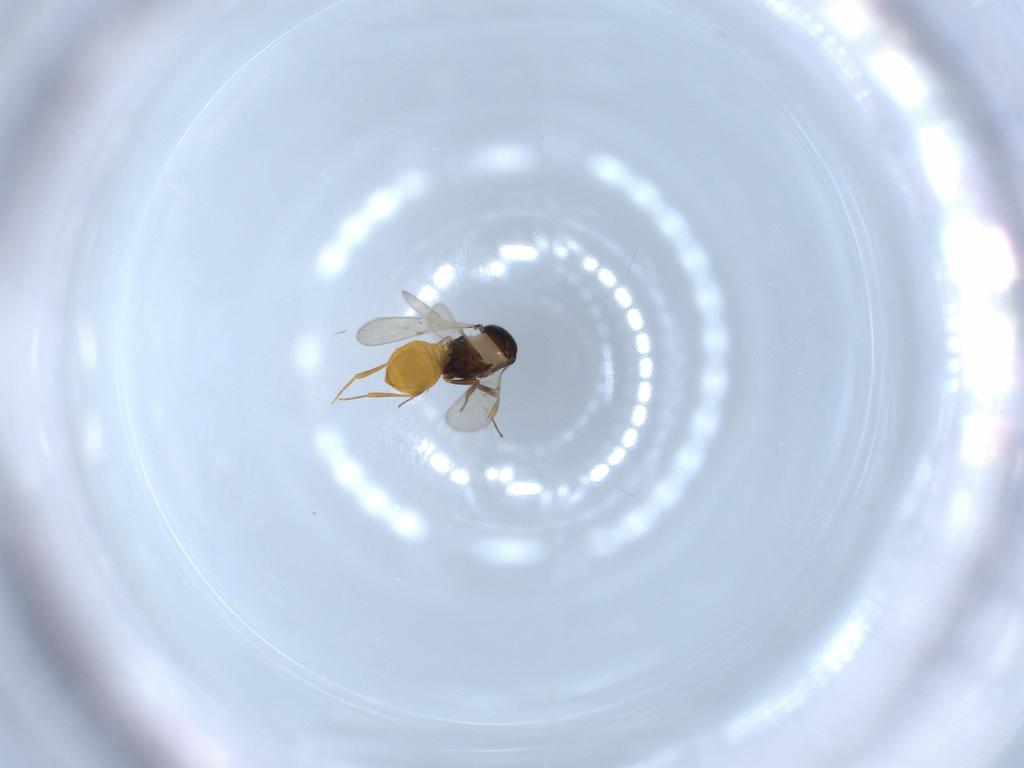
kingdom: Animalia
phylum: Arthropoda
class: Insecta
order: Hymenoptera
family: Scelionidae
